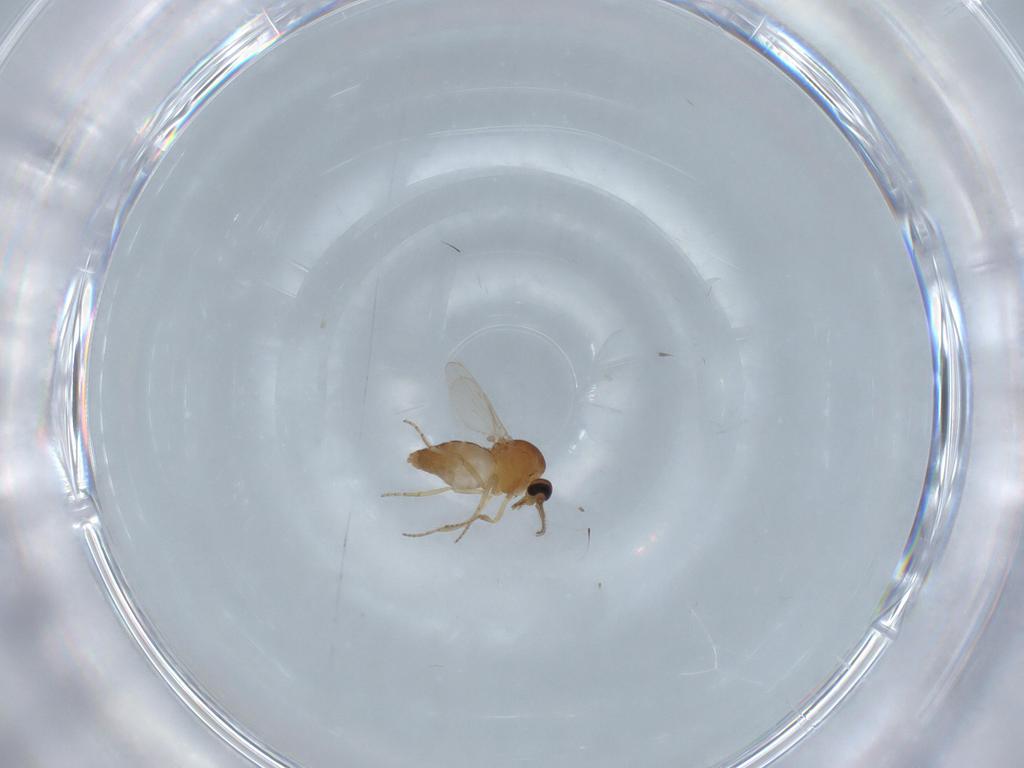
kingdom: Animalia
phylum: Arthropoda
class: Insecta
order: Diptera
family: Ceratopogonidae
